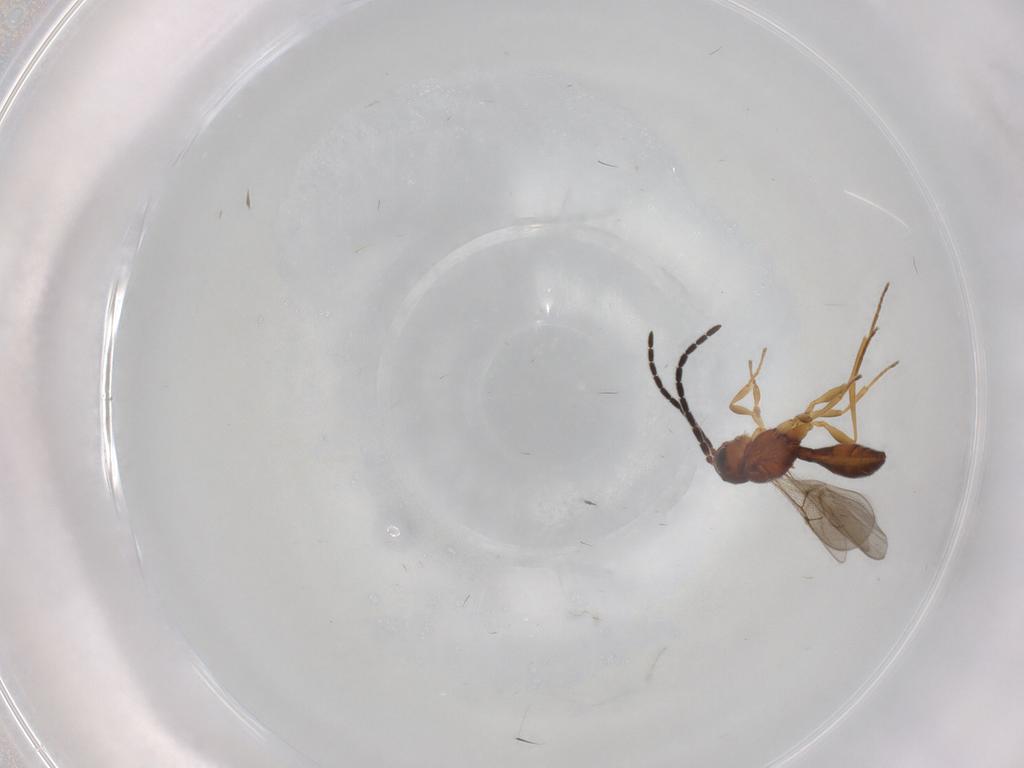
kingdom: Animalia
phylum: Arthropoda
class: Insecta
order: Hymenoptera
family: Scelionidae
